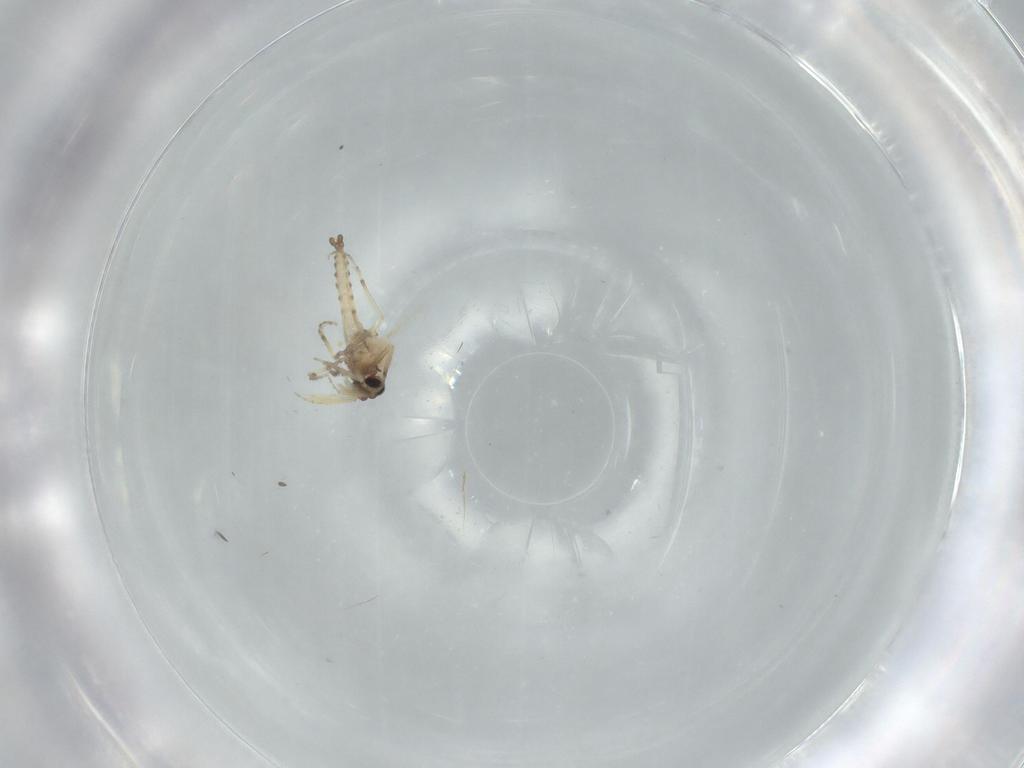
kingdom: Animalia
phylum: Arthropoda
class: Insecta
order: Diptera
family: Ceratopogonidae
